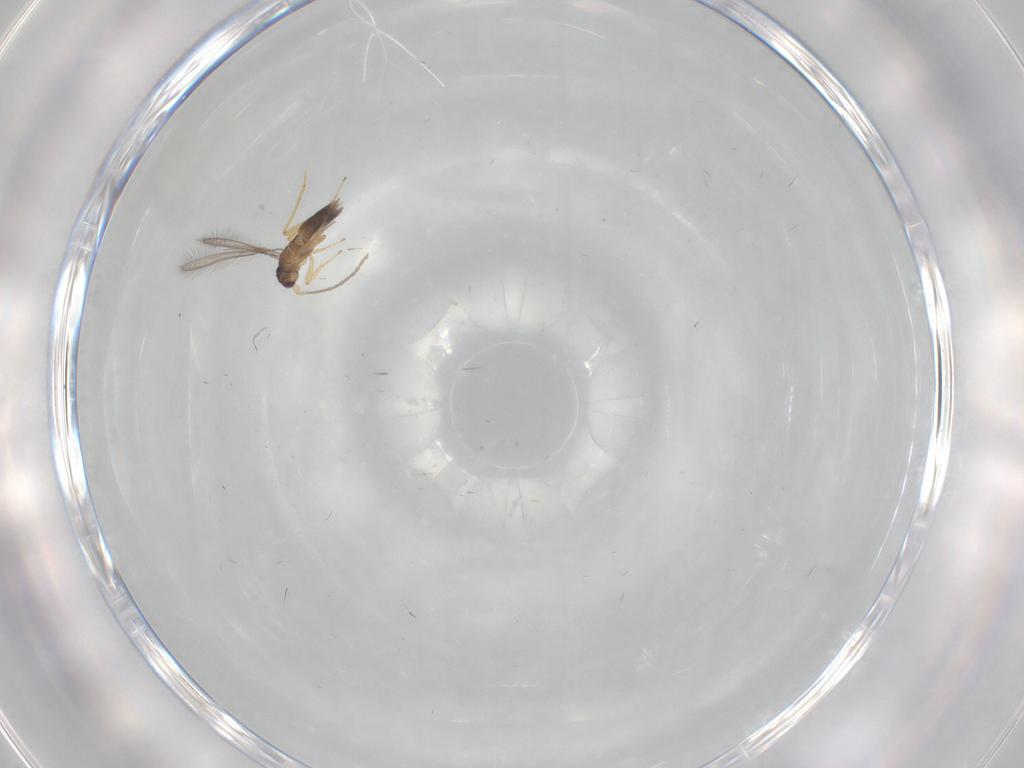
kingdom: Animalia
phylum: Arthropoda
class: Insecta
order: Hymenoptera
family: Mymaridae
